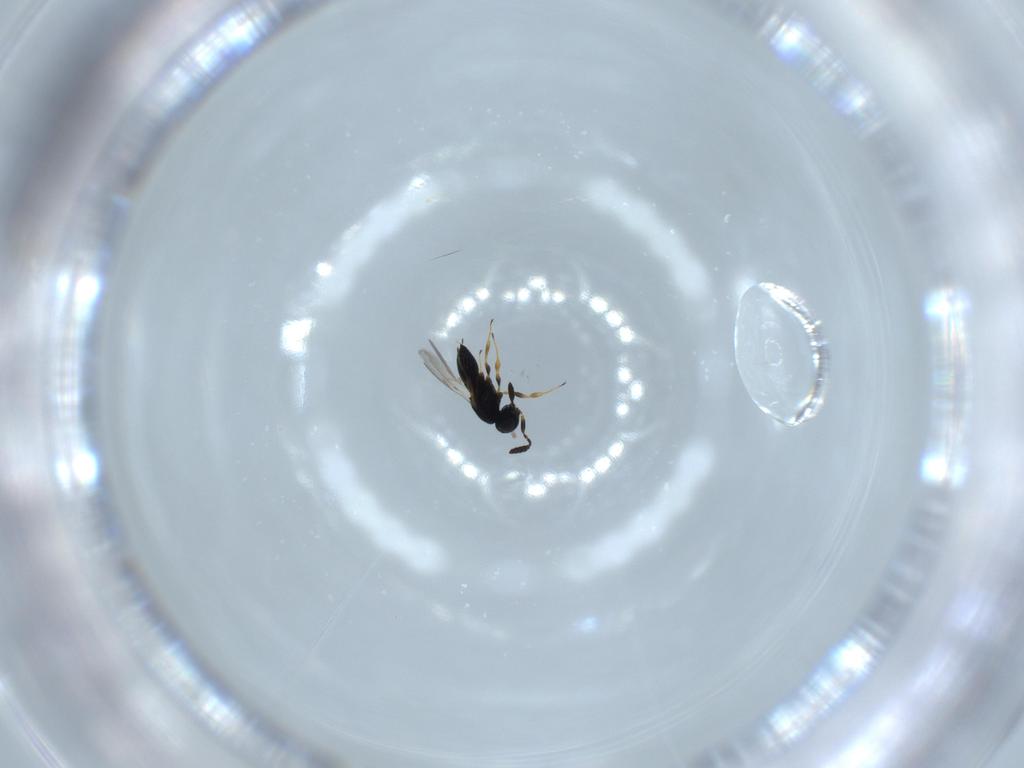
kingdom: Animalia
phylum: Arthropoda
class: Insecta
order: Hymenoptera
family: Scelionidae
